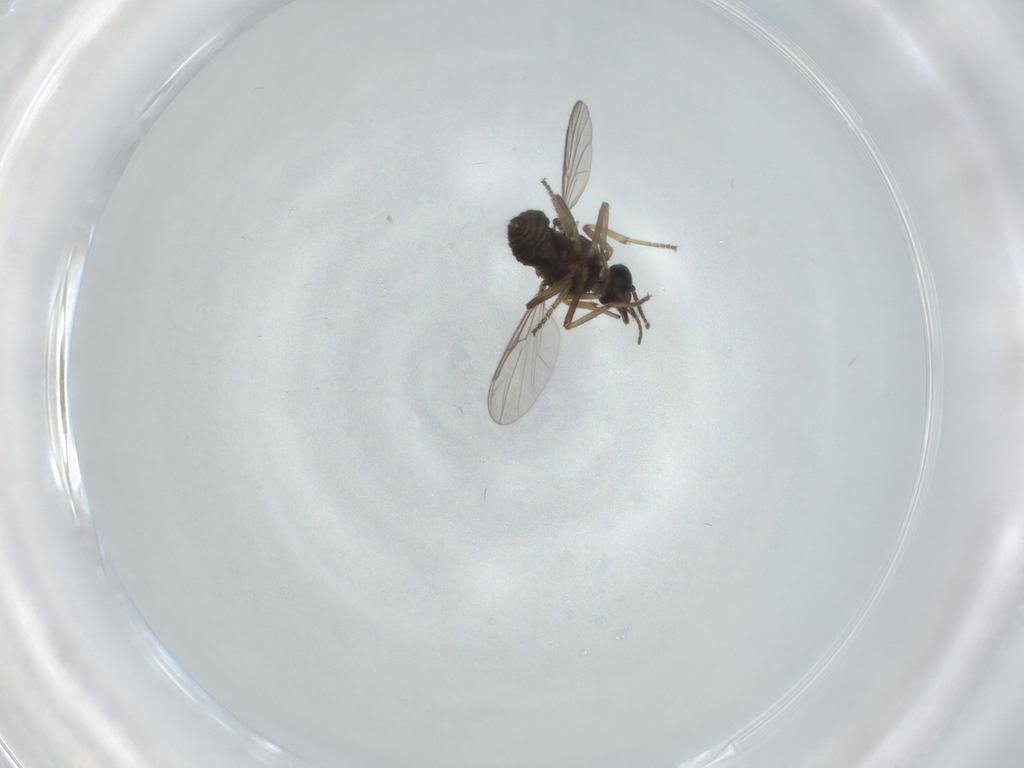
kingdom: Animalia
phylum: Arthropoda
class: Insecta
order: Diptera
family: Ceratopogonidae
